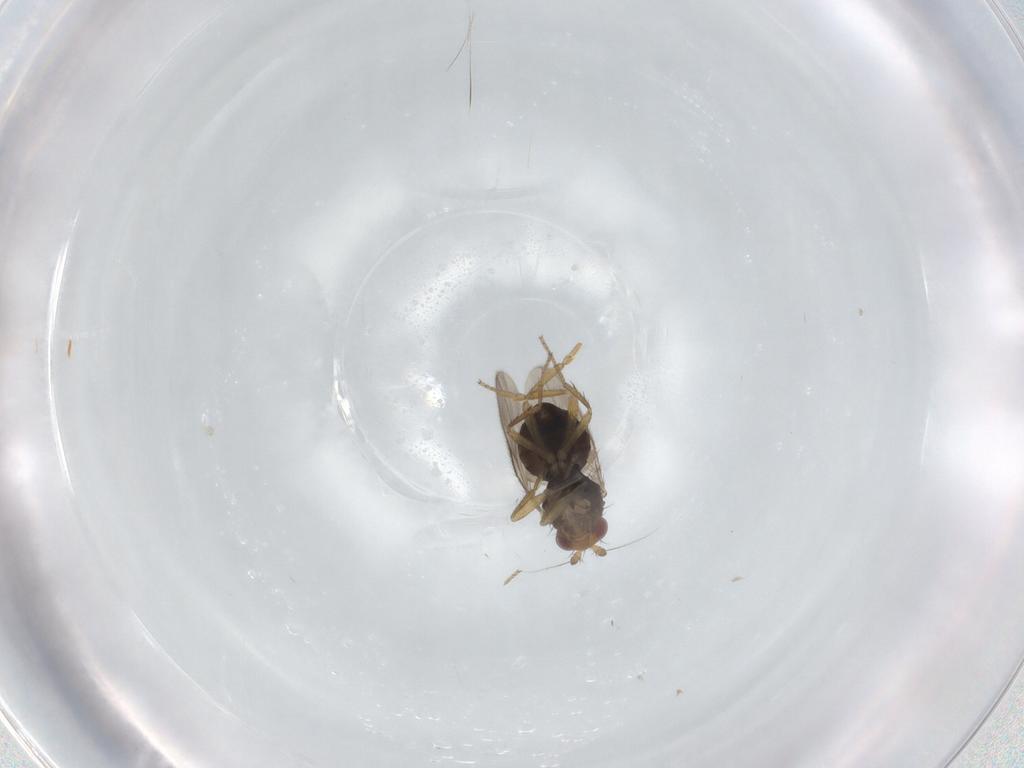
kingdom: Animalia
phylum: Arthropoda
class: Insecta
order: Diptera
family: Sphaeroceridae
